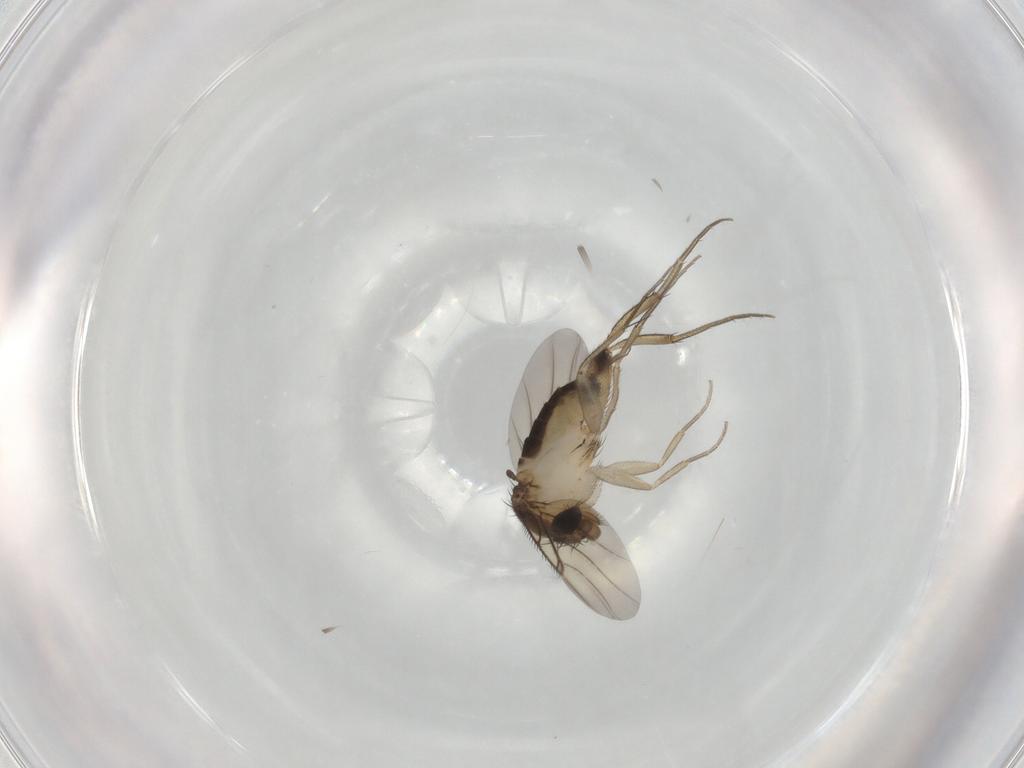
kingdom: Animalia
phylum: Arthropoda
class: Insecta
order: Diptera
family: Phoridae
